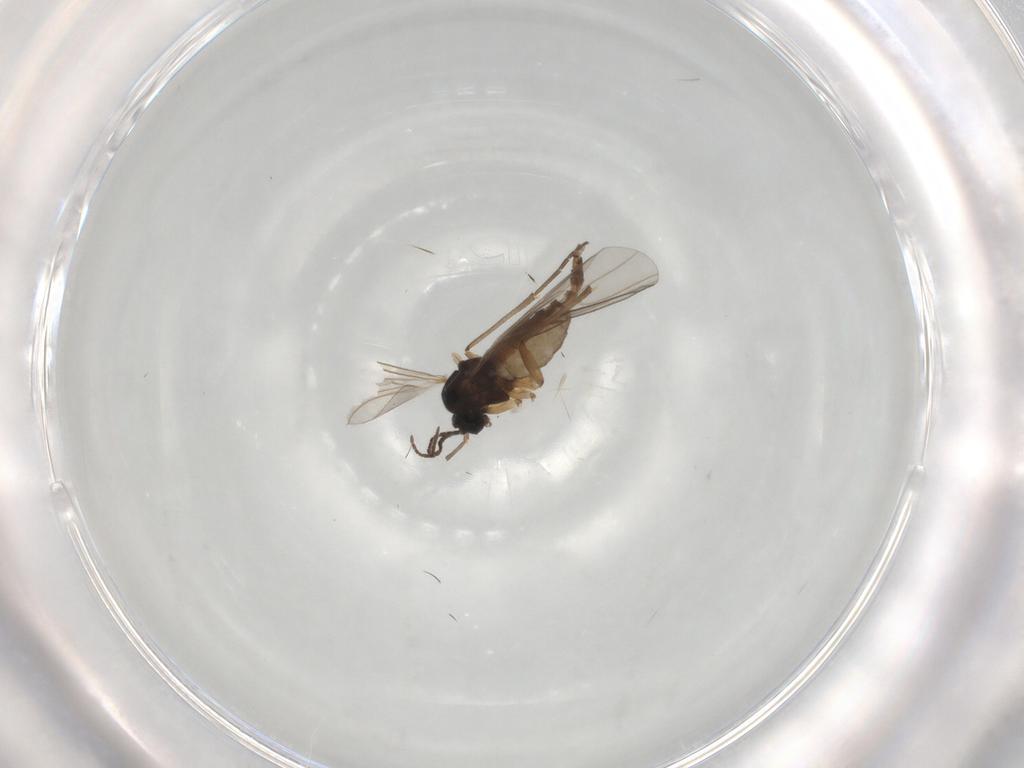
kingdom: Animalia
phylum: Arthropoda
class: Insecta
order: Diptera
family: Sciaridae
